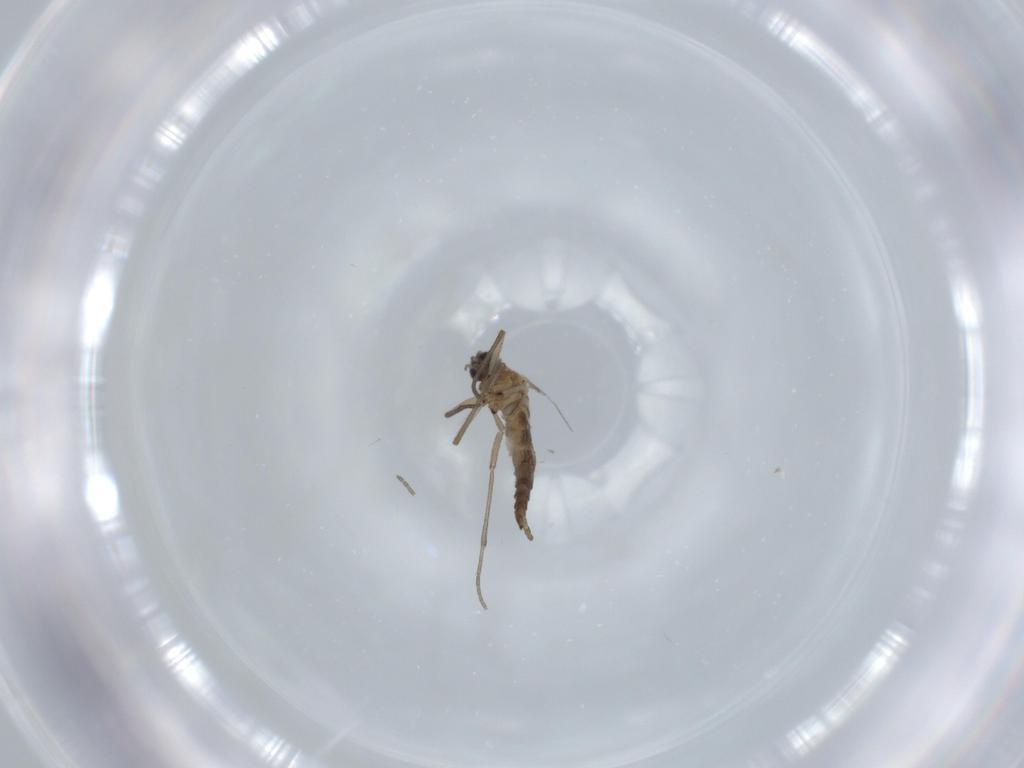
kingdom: Animalia
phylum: Arthropoda
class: Insecta
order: Diptera
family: Sciaridae
